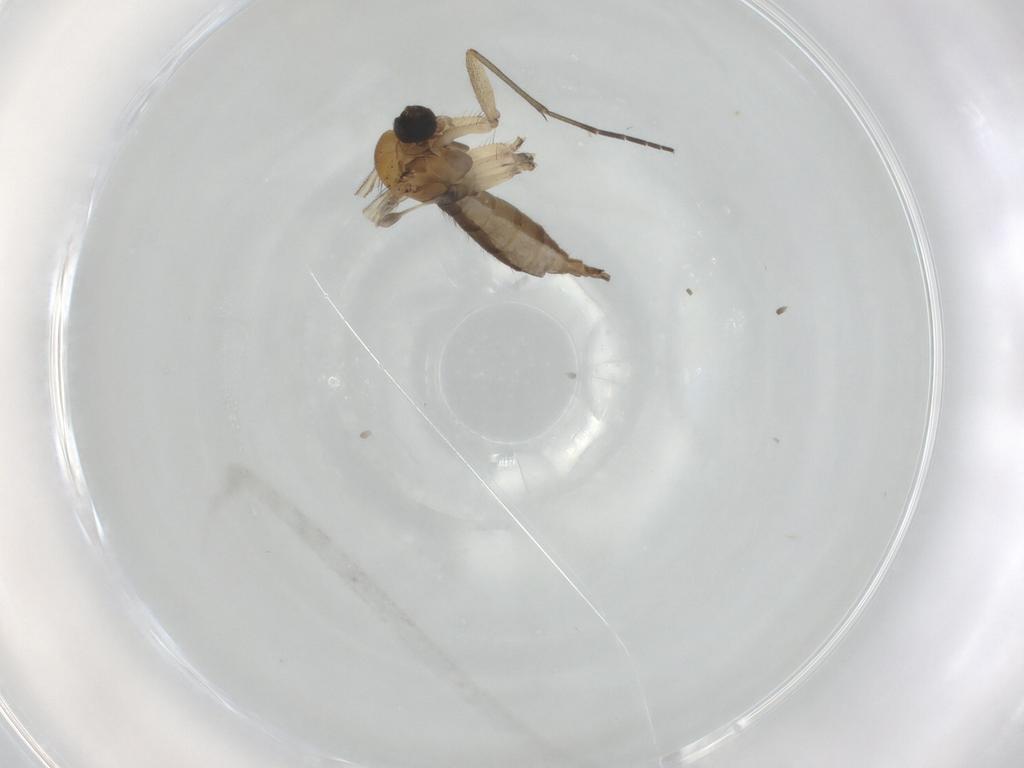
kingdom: Animalia
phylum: Arthropoda
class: Insecta
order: Diptera
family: Sciaridae
